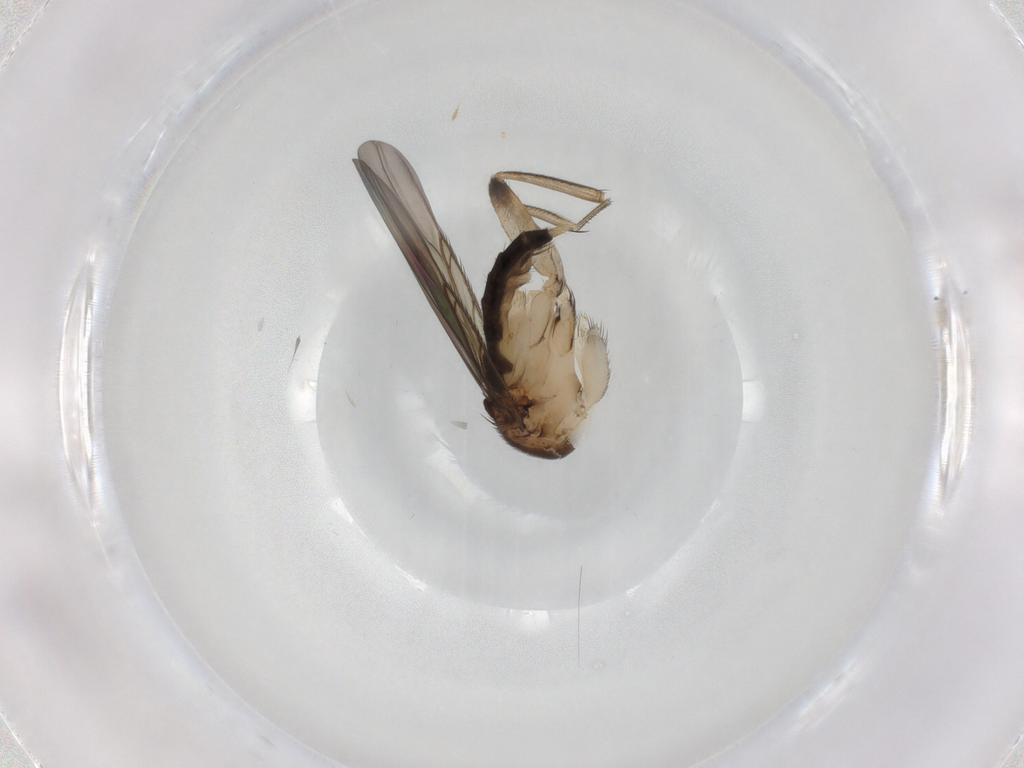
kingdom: Animalia
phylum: Arthropoda
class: Insecta
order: Diptera
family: Phoridae
